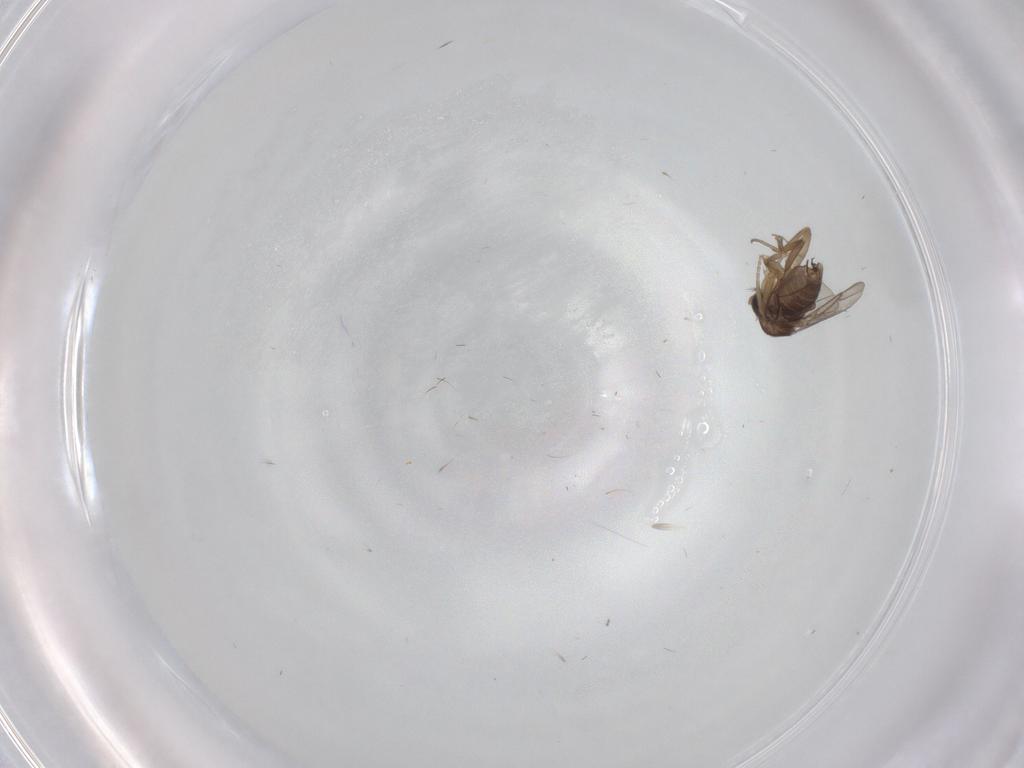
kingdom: Animalia
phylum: Arthropoda
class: Insecta
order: Diptera
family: Phoridae
